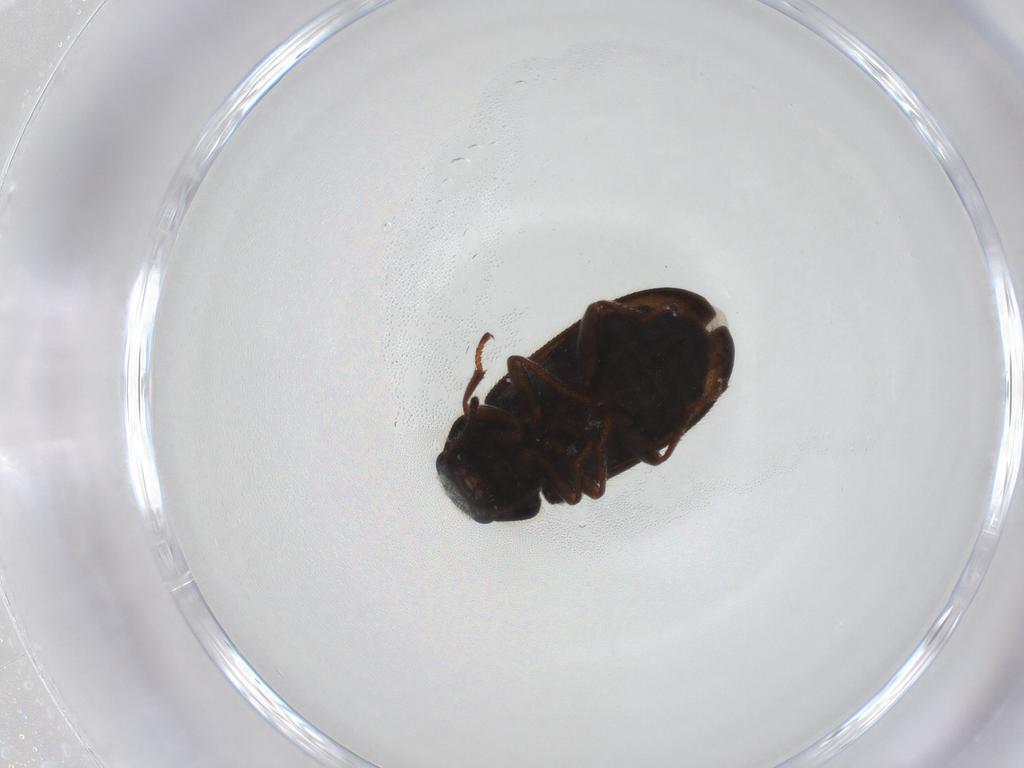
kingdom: Animalia
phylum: Arthropoda
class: Insecta
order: Coleoptera
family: Melyridae
